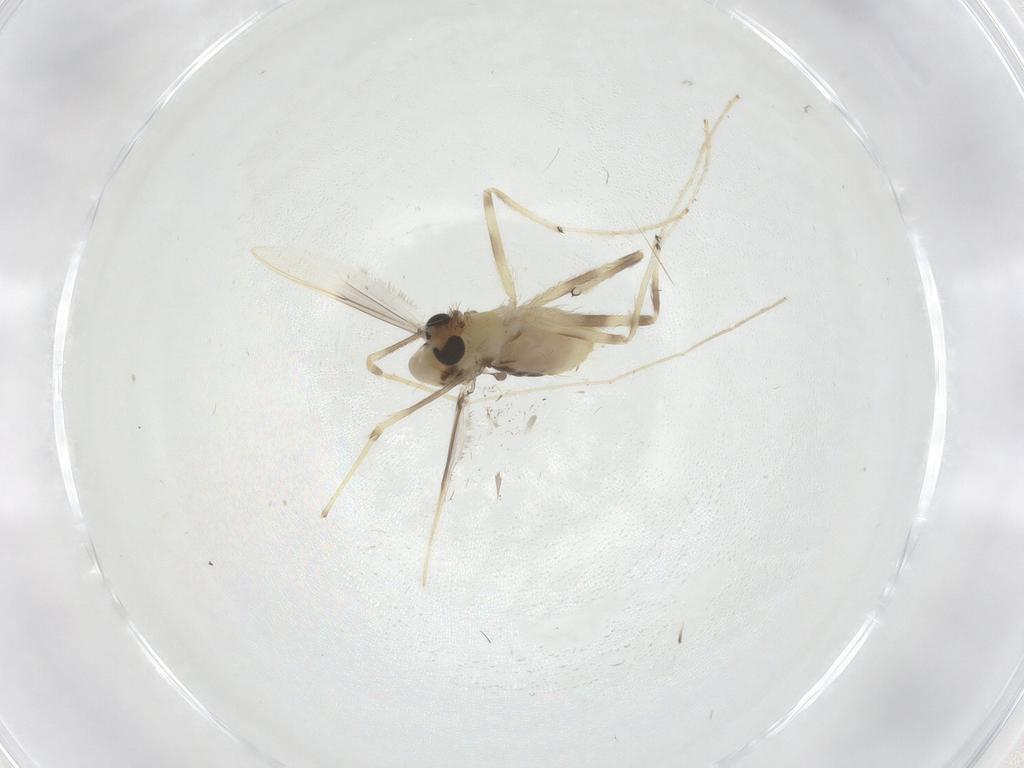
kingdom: Animalia
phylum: Arthropoda
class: Insecta
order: Diptera
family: Chironomidae
